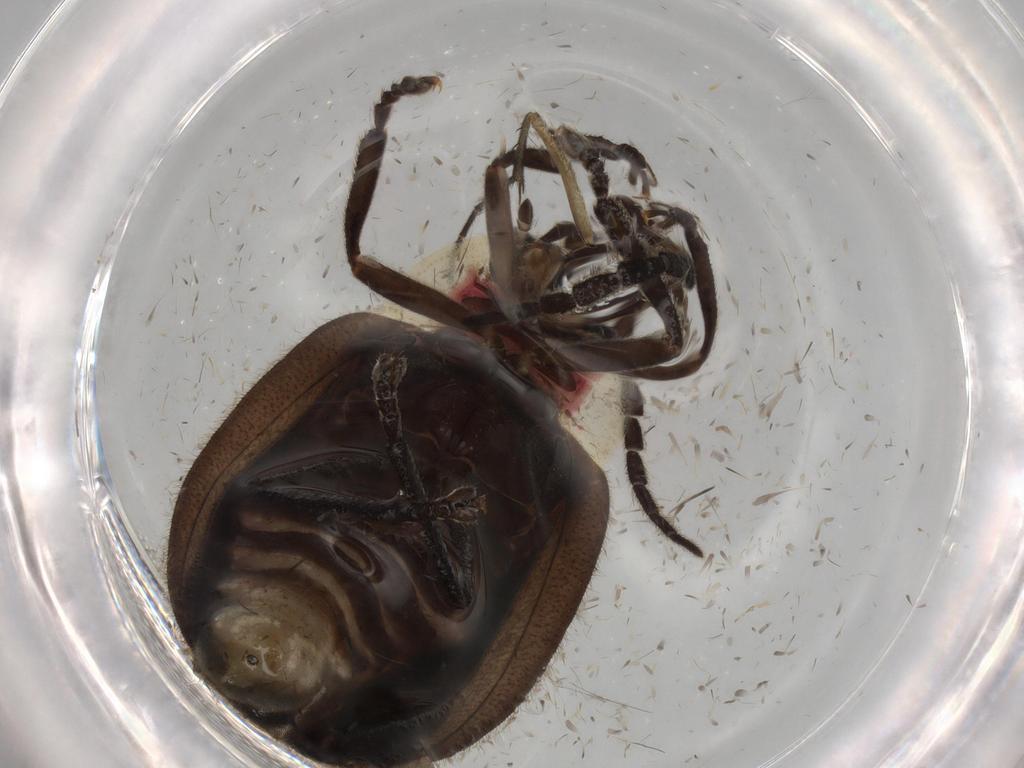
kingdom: Animalia
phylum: Arthropoda
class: Insecta
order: Coleoptera
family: Lampyridae
